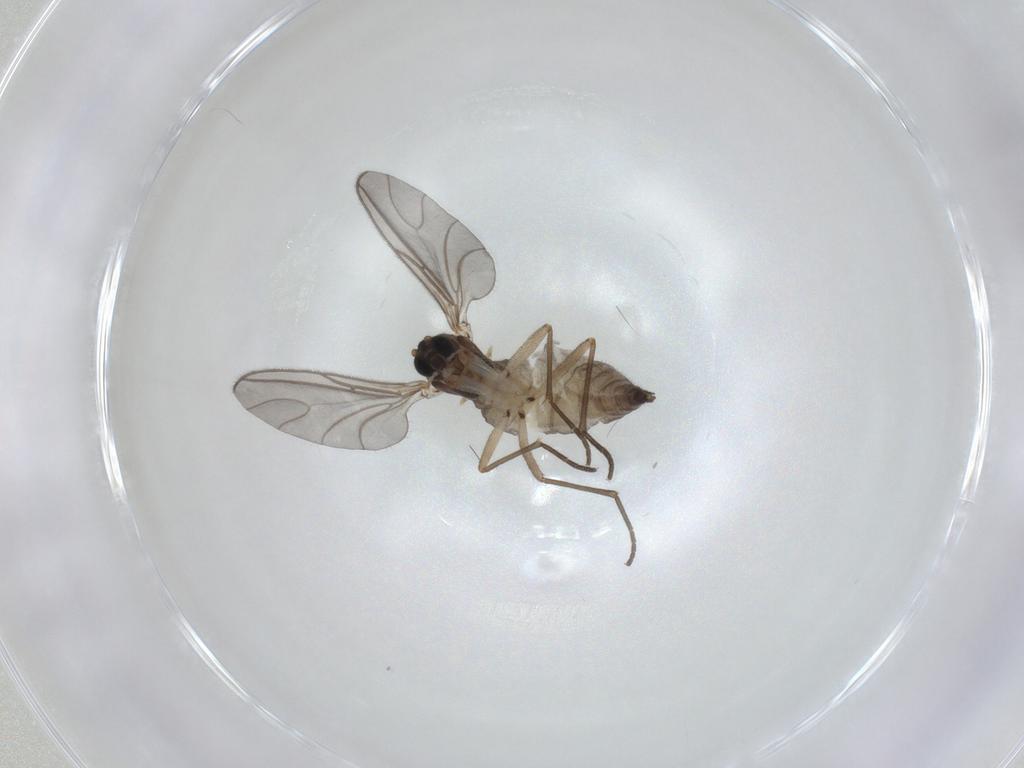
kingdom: Animalia
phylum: Arthropoda
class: Insecta
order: Diptera
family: Sciaridae
